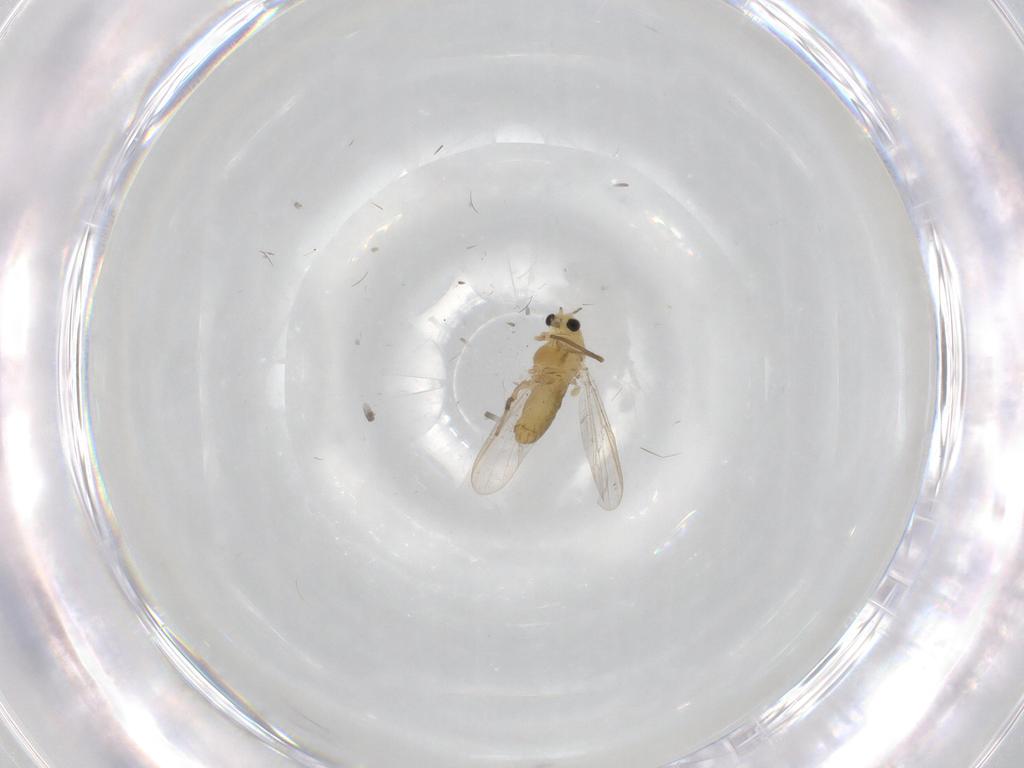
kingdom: Animalia
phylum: Arthropoda
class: Insecta
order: Diptera
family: Chironomidae
